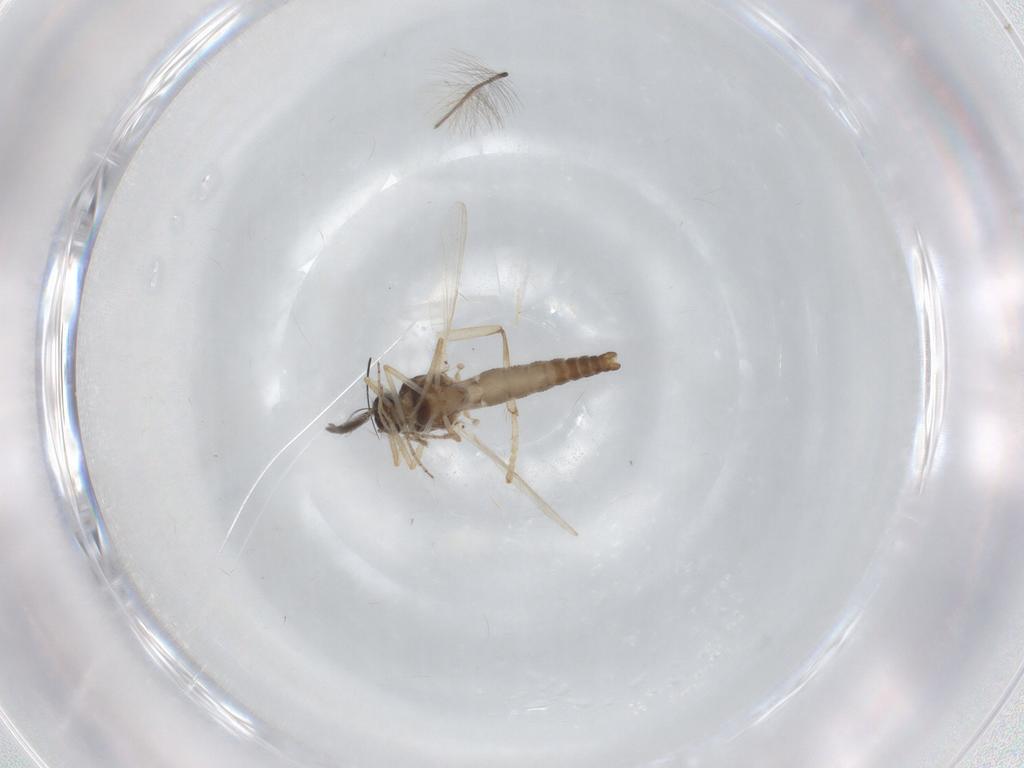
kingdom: Animalia
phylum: Arthropoda
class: Insecta
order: Diptera
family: Ceratopogonidae
